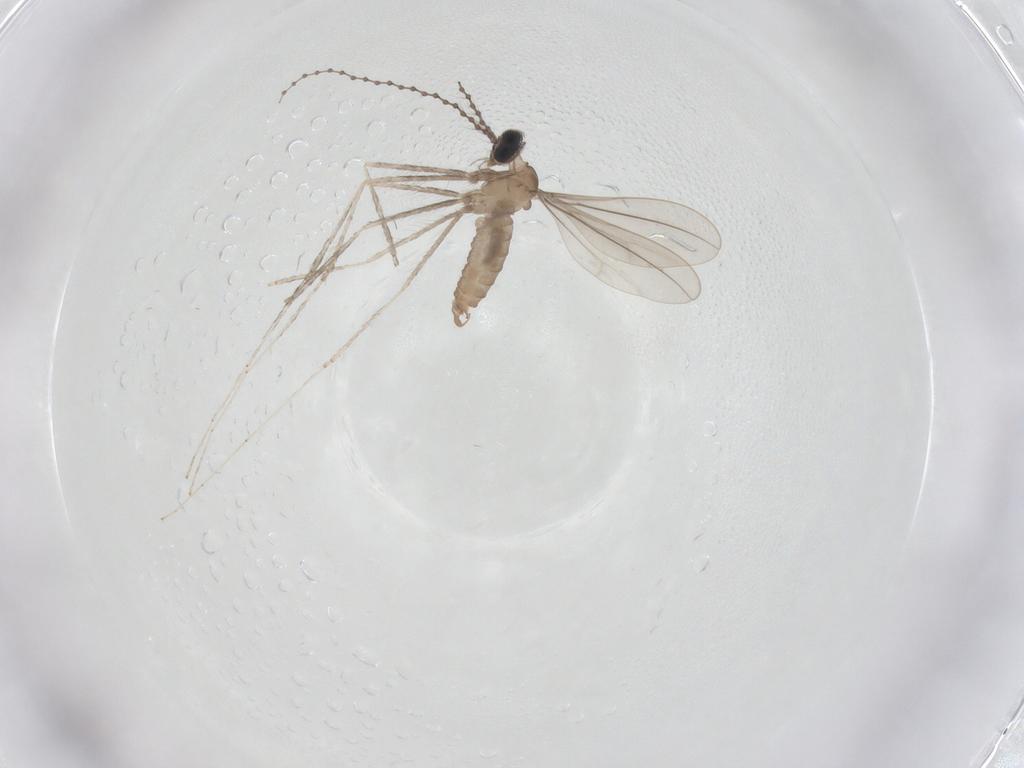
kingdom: Animalia
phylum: Arthropoda
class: Insecta
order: Diptera
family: Cecidomyiidae
